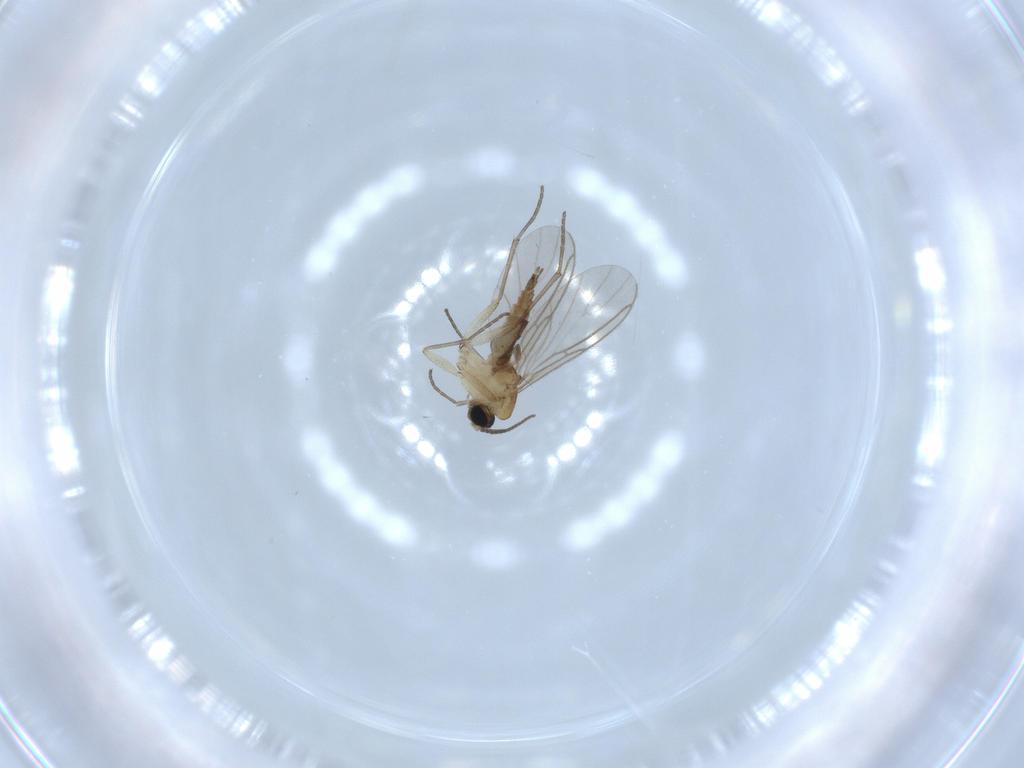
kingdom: Animalia
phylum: Arthropoda
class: Insecta
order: Diptera
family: Sciaridae
